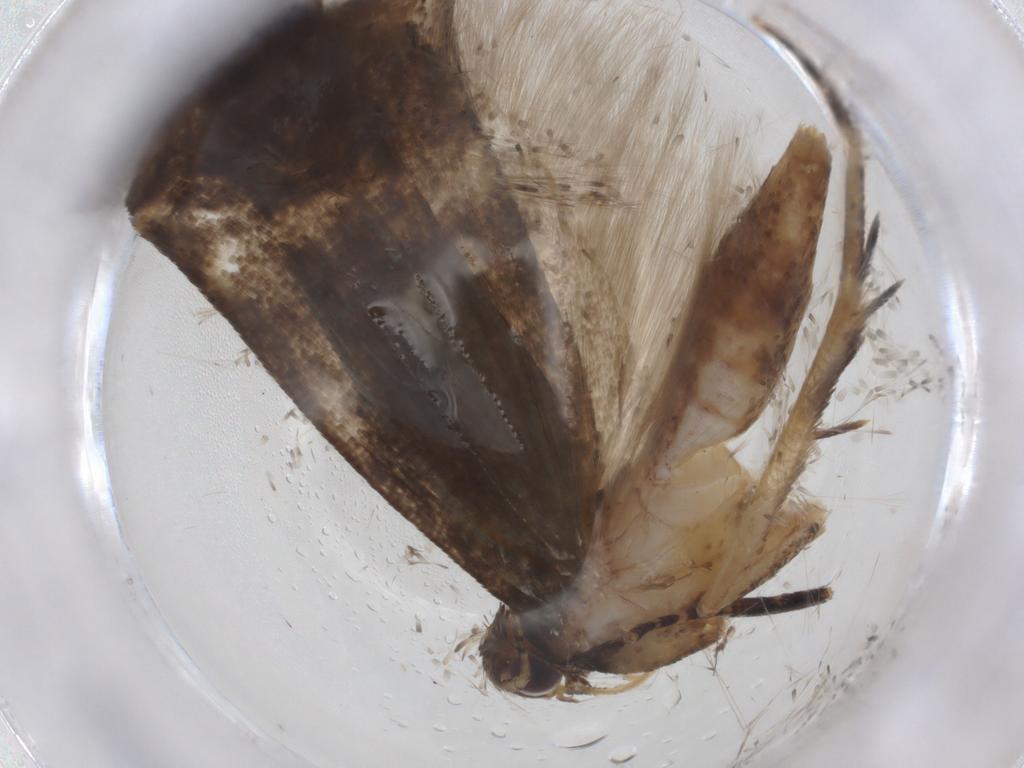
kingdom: Animalia
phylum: Arthropoda
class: Insecta
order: Lepidoptera
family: Gelechiidae
